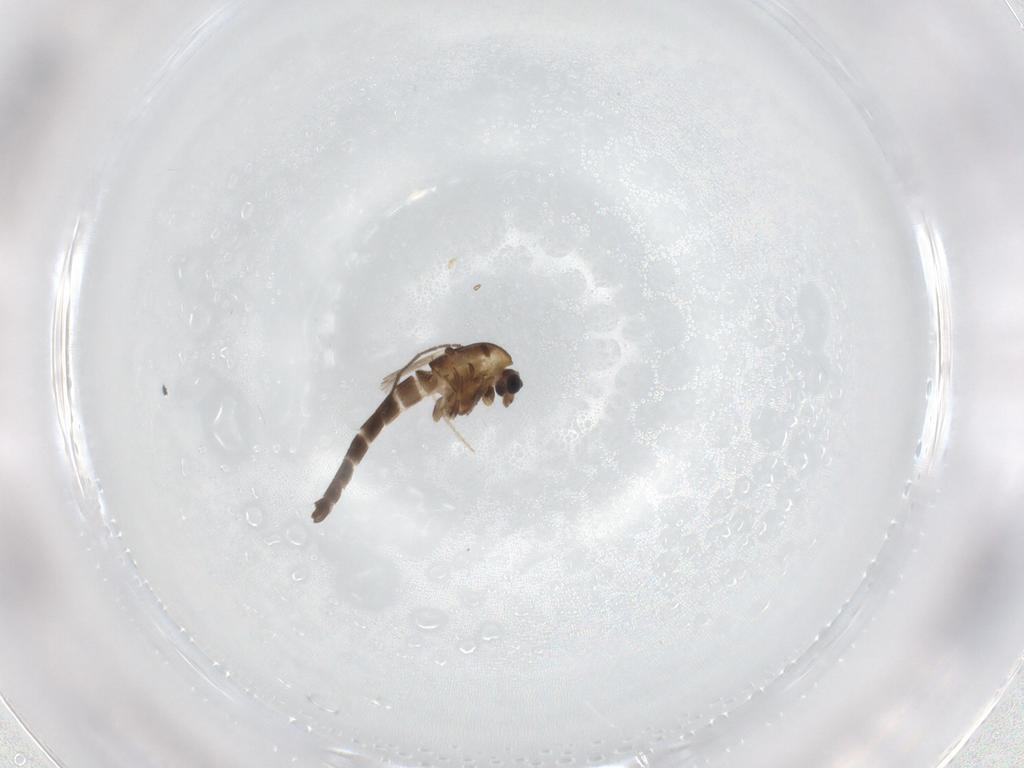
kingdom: Animalia
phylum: Arthropoda
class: Insecta
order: Diptera
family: Chironomidae
